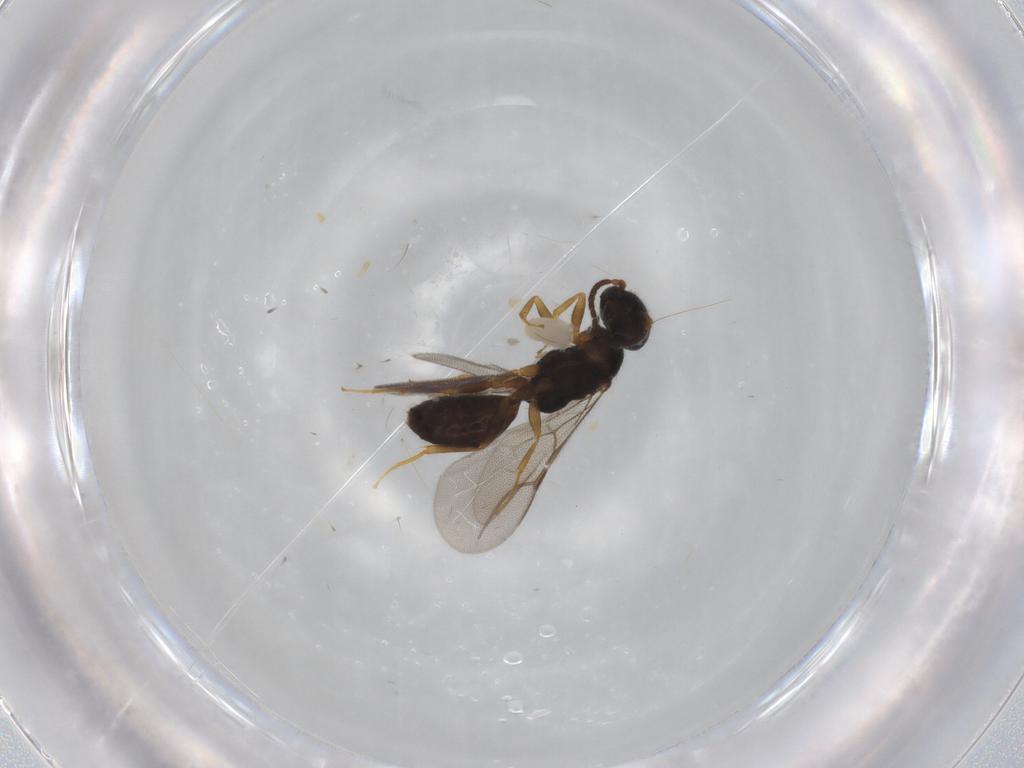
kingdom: Animalia
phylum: Arthropoda
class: Insecta
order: Hymenoptera
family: Bethylidae
